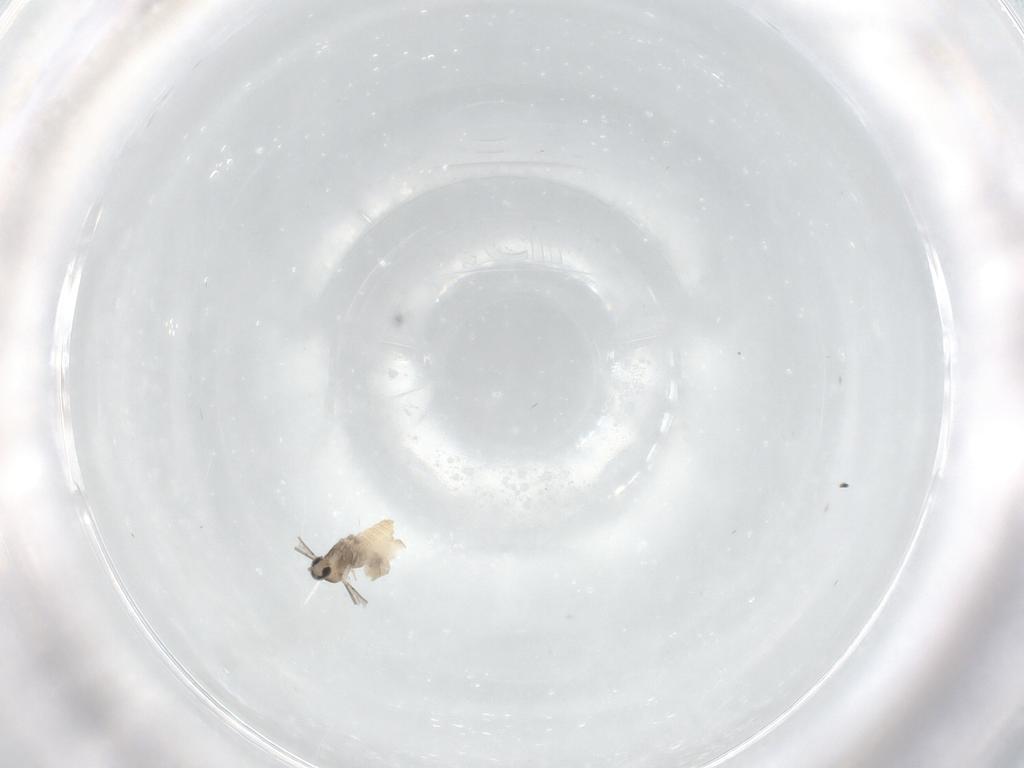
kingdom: Animalia
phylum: Arthropoda
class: Insecta
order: Diptera
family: Cecidomyiidae
